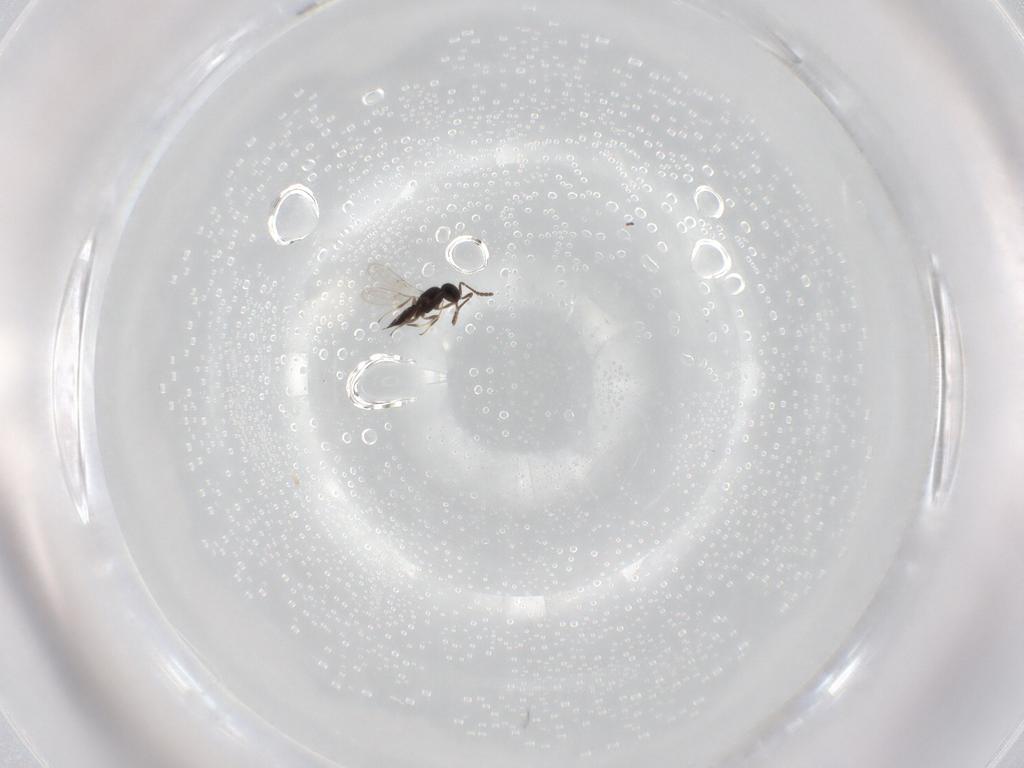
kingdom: Animalia
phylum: Arthropoda
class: Insecta
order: Hymenoptera
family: Scelionidae
